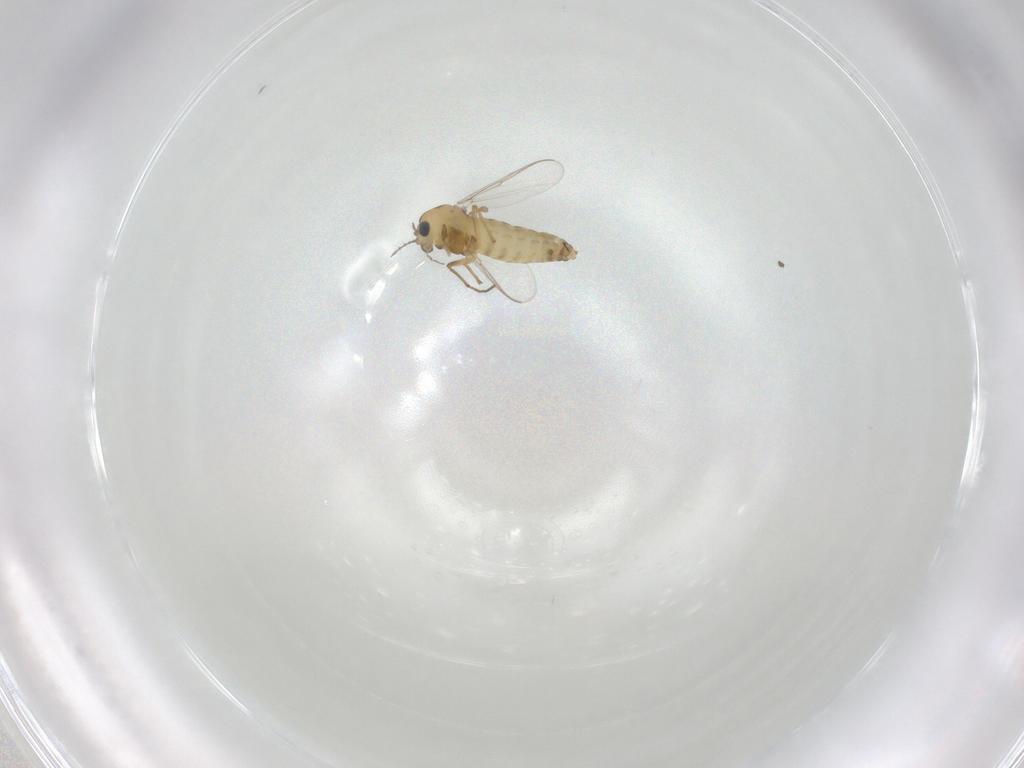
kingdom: Animalia
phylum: Arthropoda
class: Insecta
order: Diptera
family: Chironomidae
